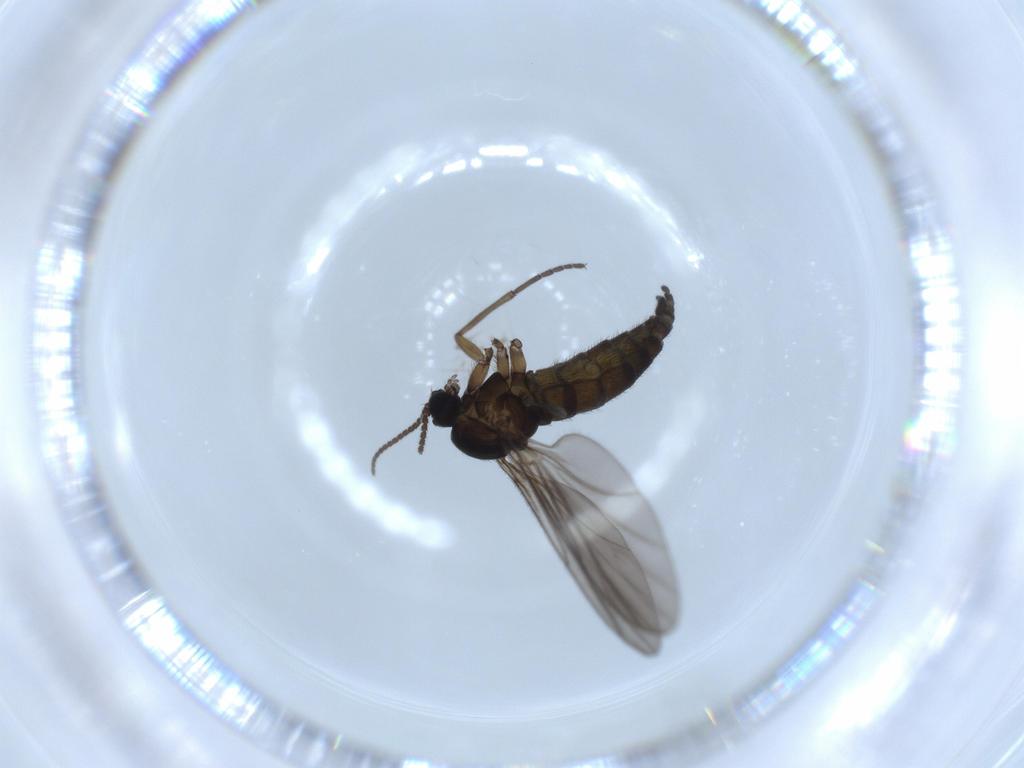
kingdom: Animalia
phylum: Arthropoda
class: Insecta
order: Diptera
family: Sciaridae
